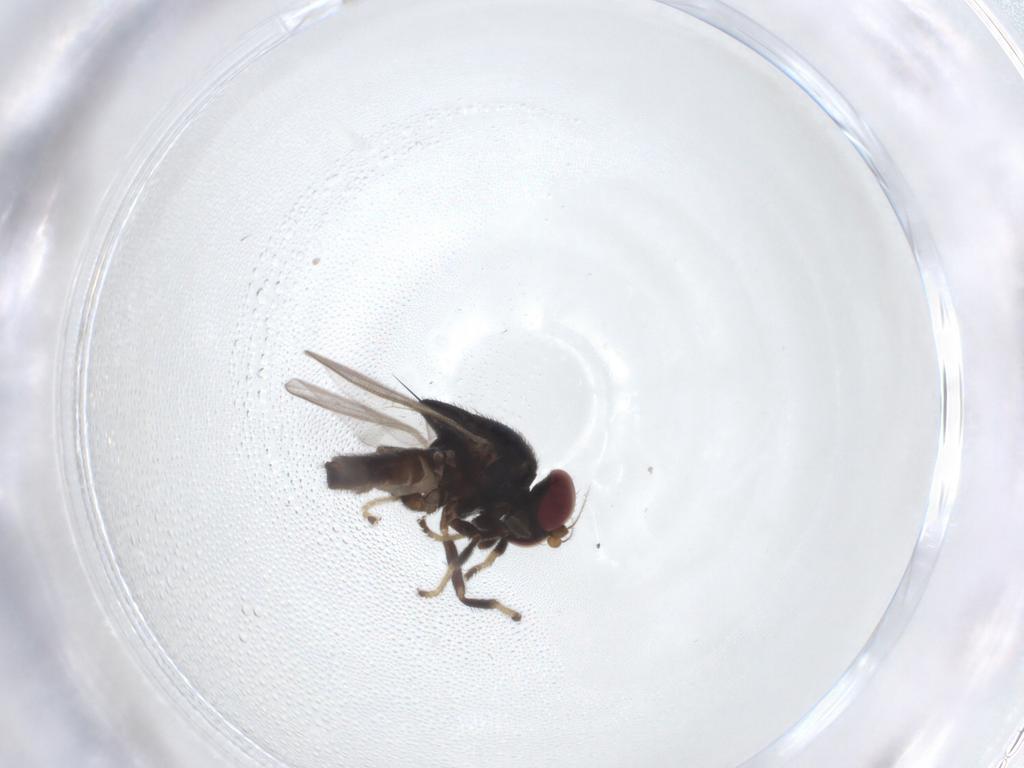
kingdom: Animalia
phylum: Arthropoda
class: Insecta
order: Diptera
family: Chloropidae
